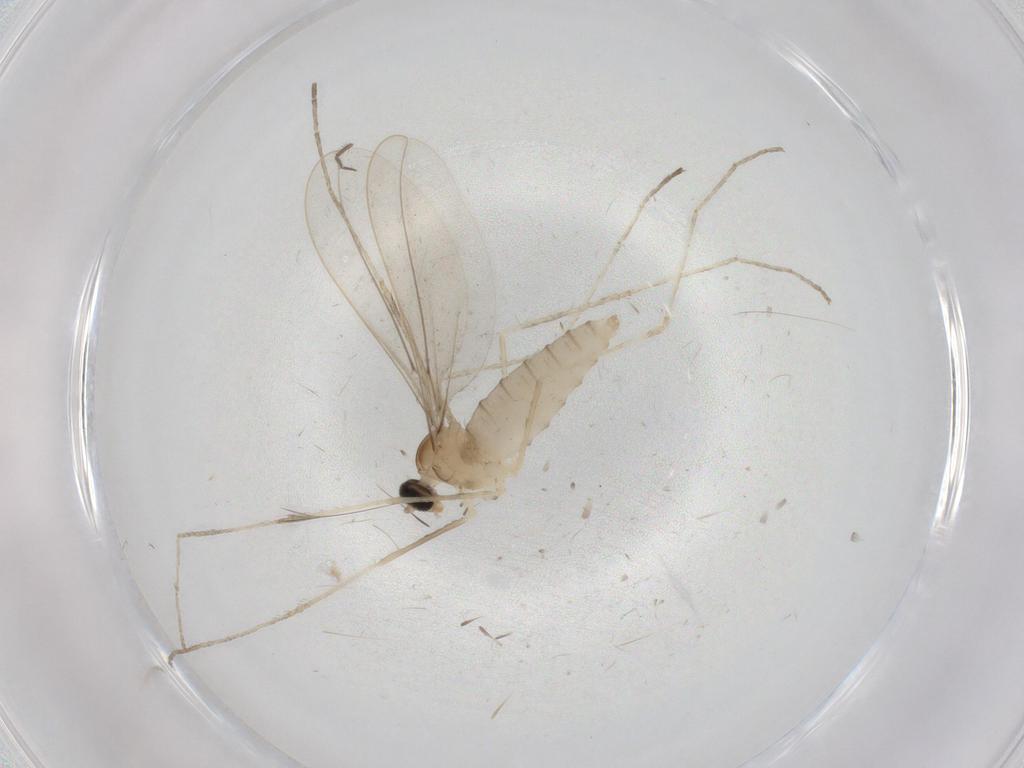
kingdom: Animalia
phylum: Arthropoda
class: Insecta
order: Diptera
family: Cecidomyiidae
